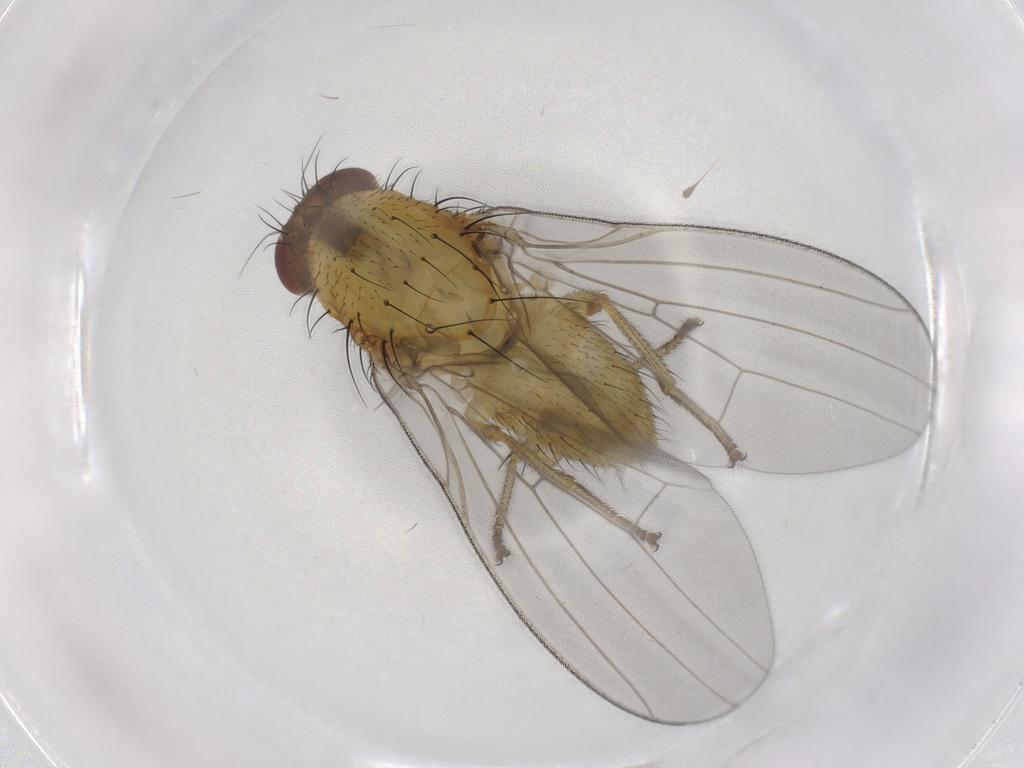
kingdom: Animalia
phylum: Arthropoda
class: Insecta
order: Diptera
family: Lauxaniidae
